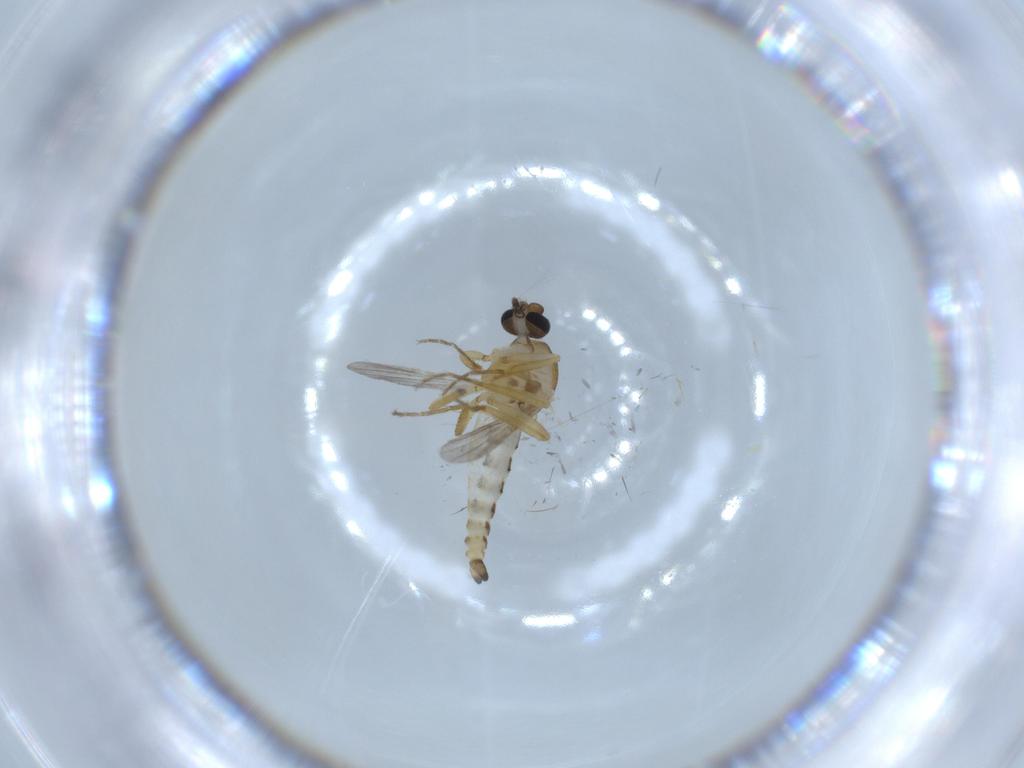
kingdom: Animalia
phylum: Arthropoda
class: Insecta
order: Diptera
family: Ceratopogonidae
